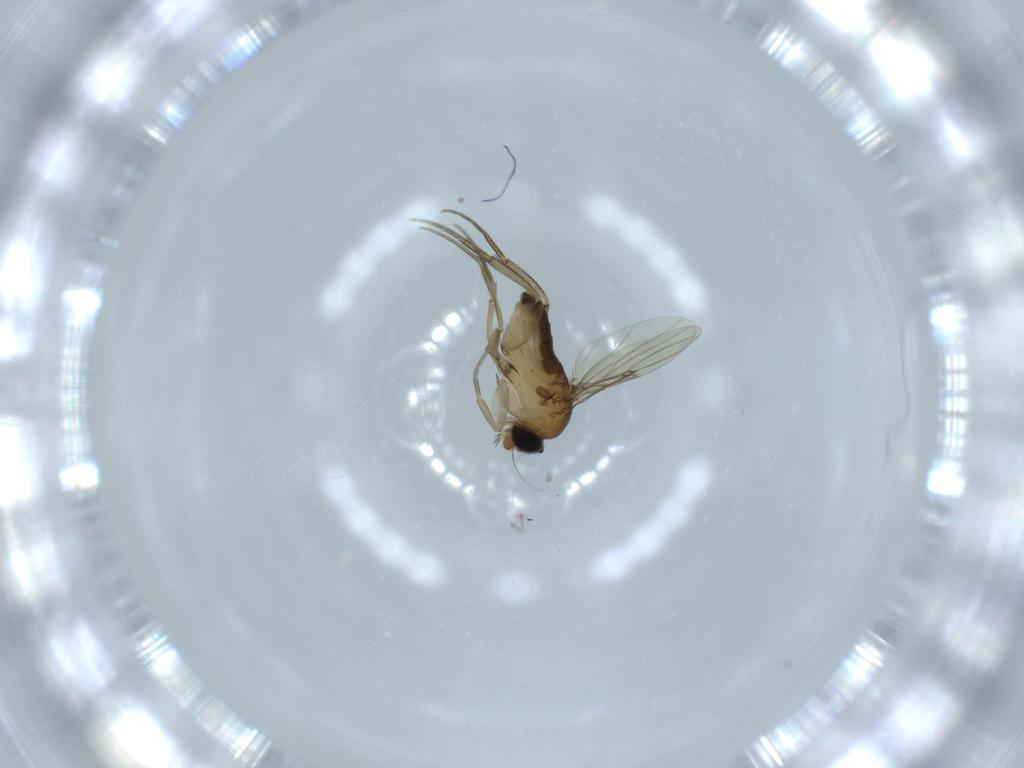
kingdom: Animalia
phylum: Arthropoda
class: Insecta
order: Diptera
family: Phoridae
